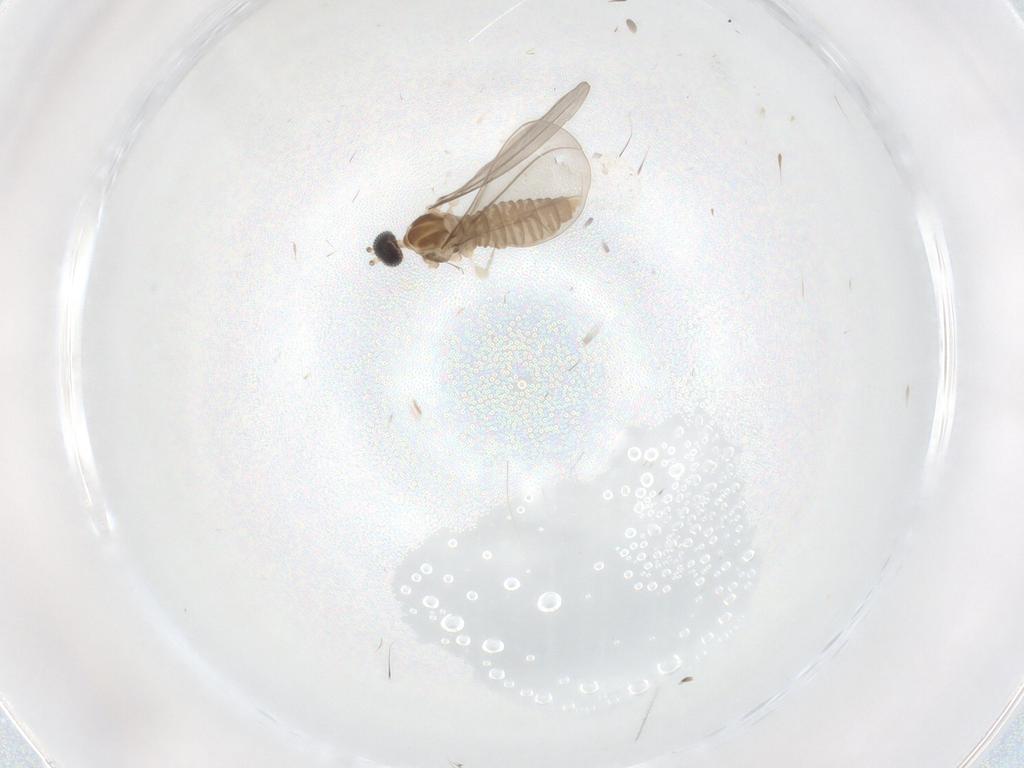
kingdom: Animalia
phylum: Arthropoda
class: Insecta
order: Diptera
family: Cecidomyiidae
